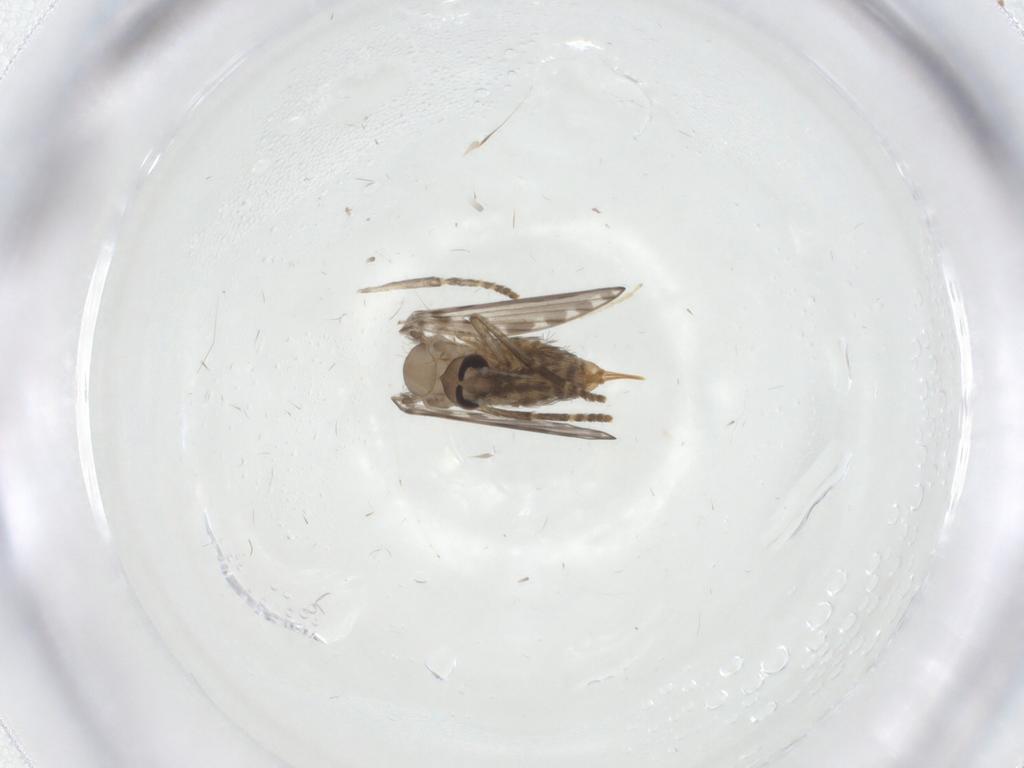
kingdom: Animalia
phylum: Arthropoda
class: Insecta
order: Diptera
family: Psychodidae
